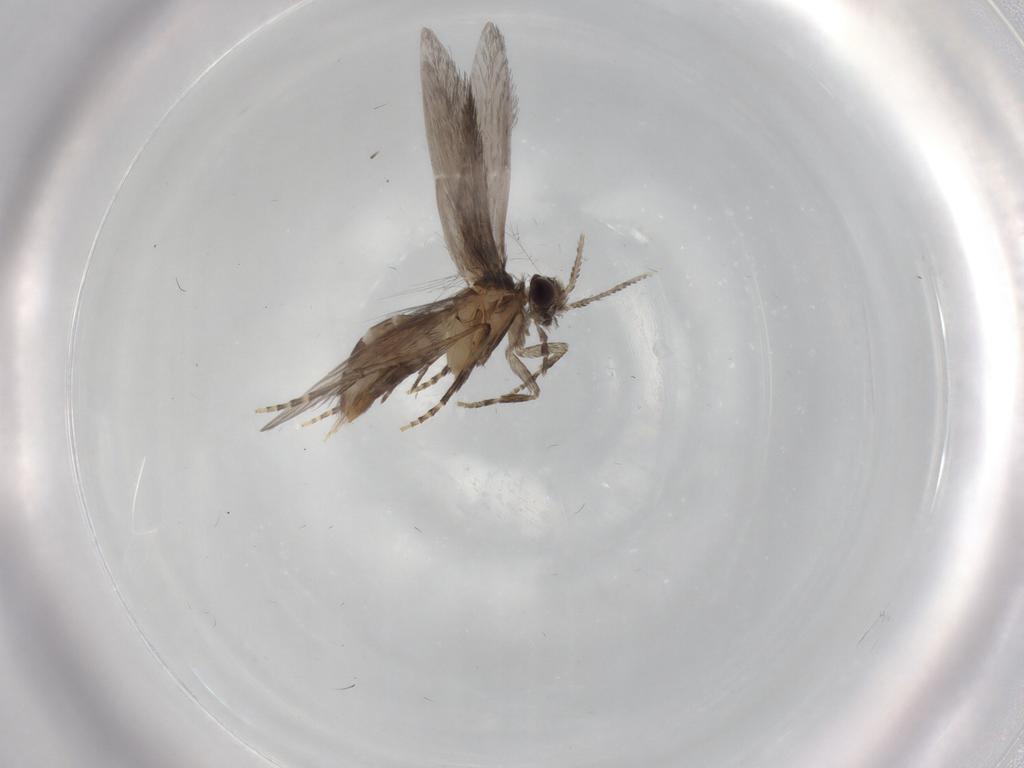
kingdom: Animalia
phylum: Arthropoda
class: Insecta
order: Trichoptera
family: Hydroptilidae
